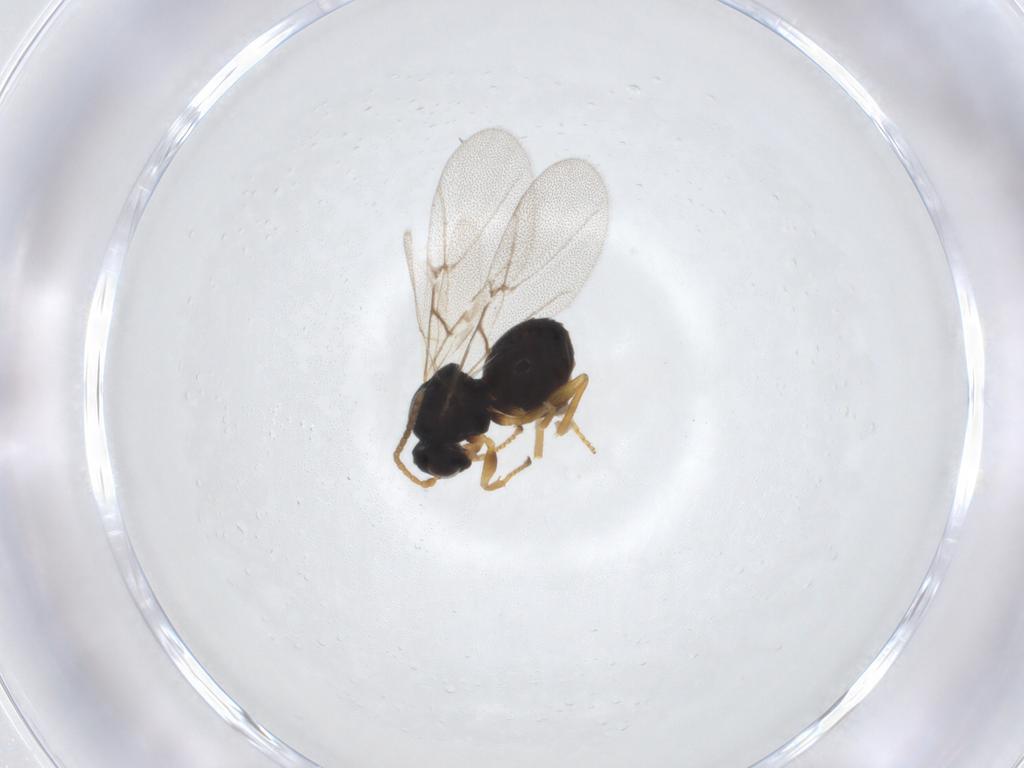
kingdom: Animalia
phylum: Arthropoda
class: Insecta
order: Hymenoptera
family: Cynipidae
